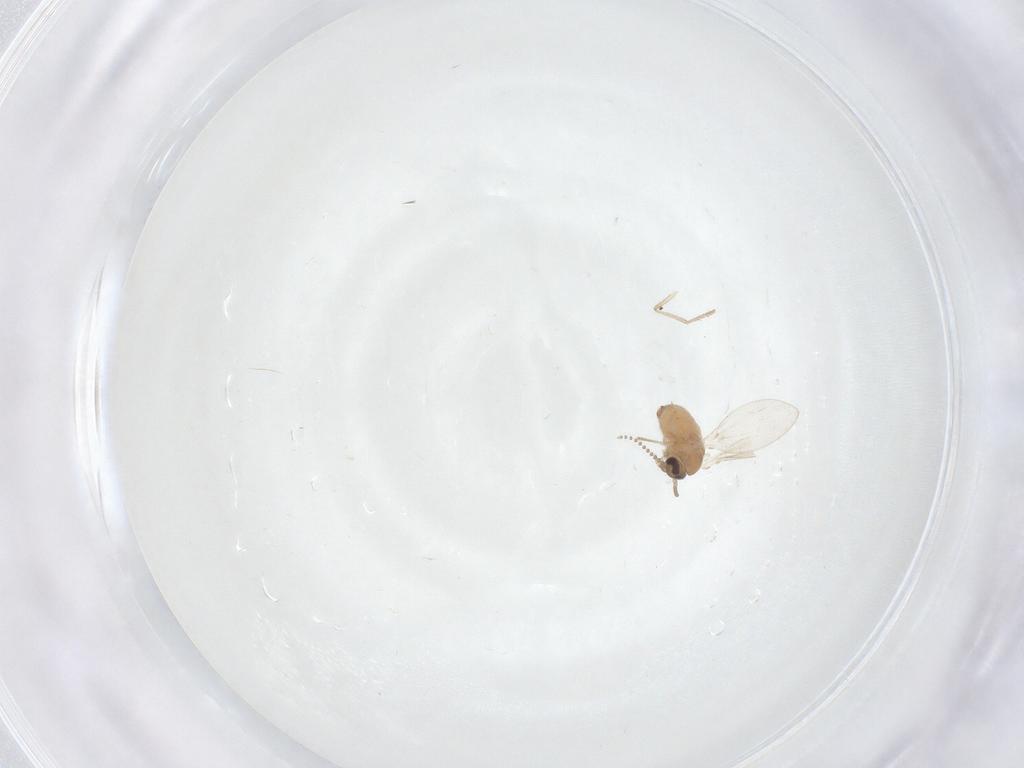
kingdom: Animalia
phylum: Arthropoda
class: Insecta
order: Diptera
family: Psychodidae
